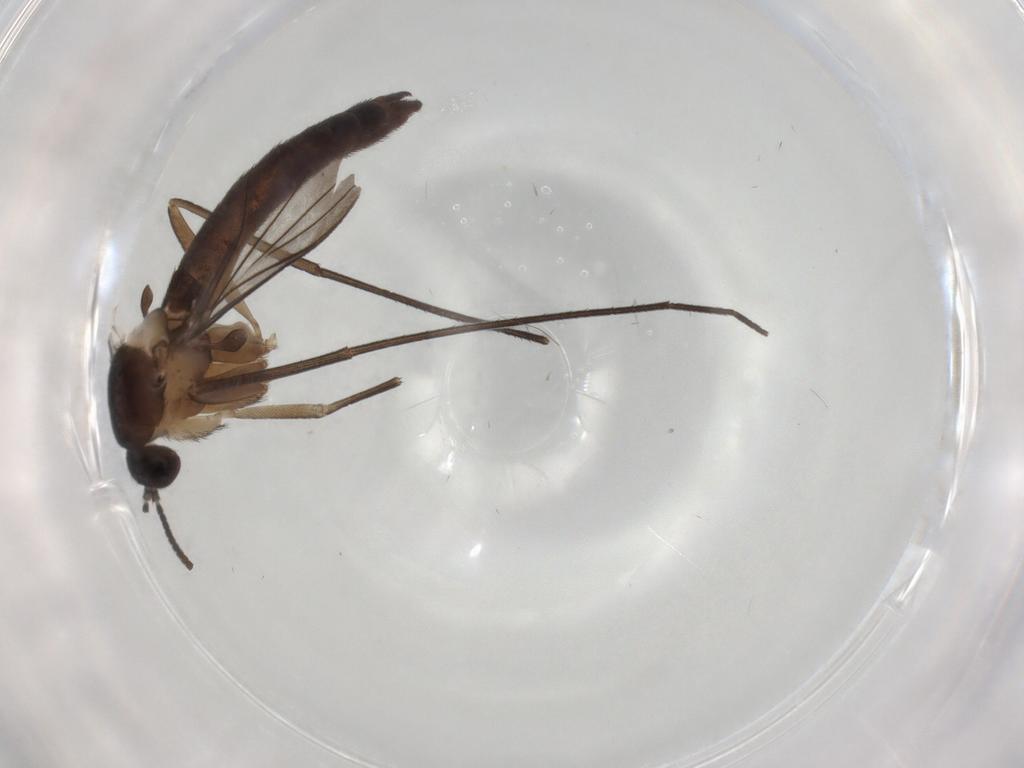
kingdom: Animalia
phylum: Arthropoda
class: Insecta
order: Diptera
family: Keroplatidae
